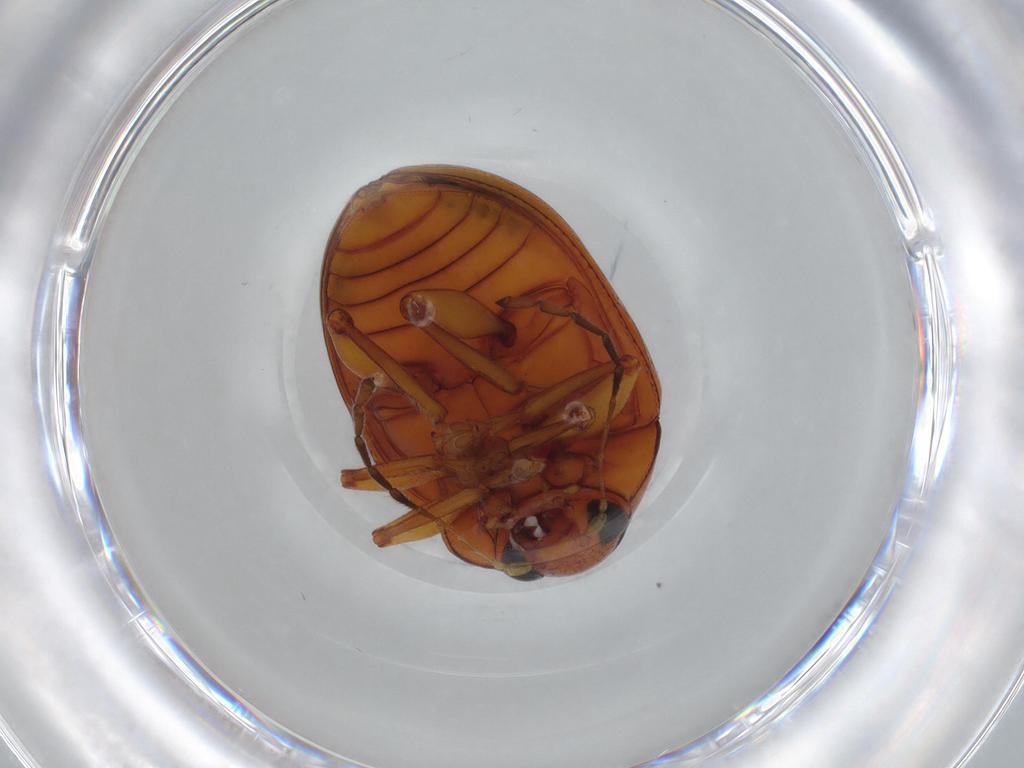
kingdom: Animalia
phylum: Arthropoda
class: Insecta
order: Coleoptera
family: Chrysomelidae
